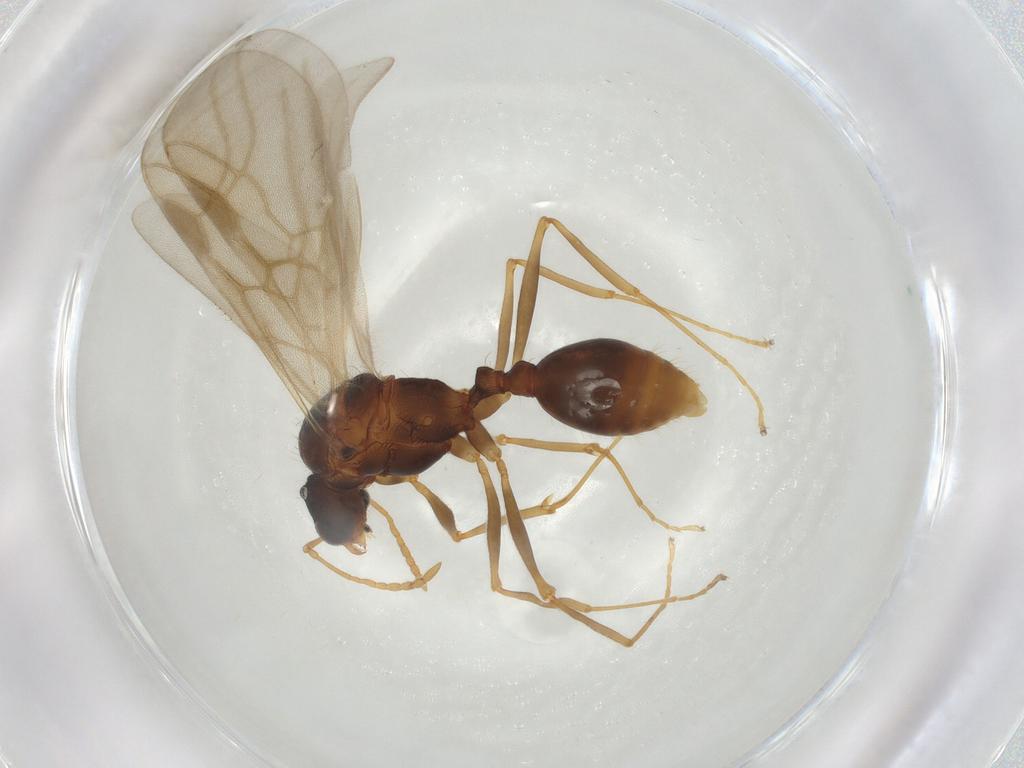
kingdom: Animalia
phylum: Arthropoda
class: Insecta
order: Hymenoptera
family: Formicidae
